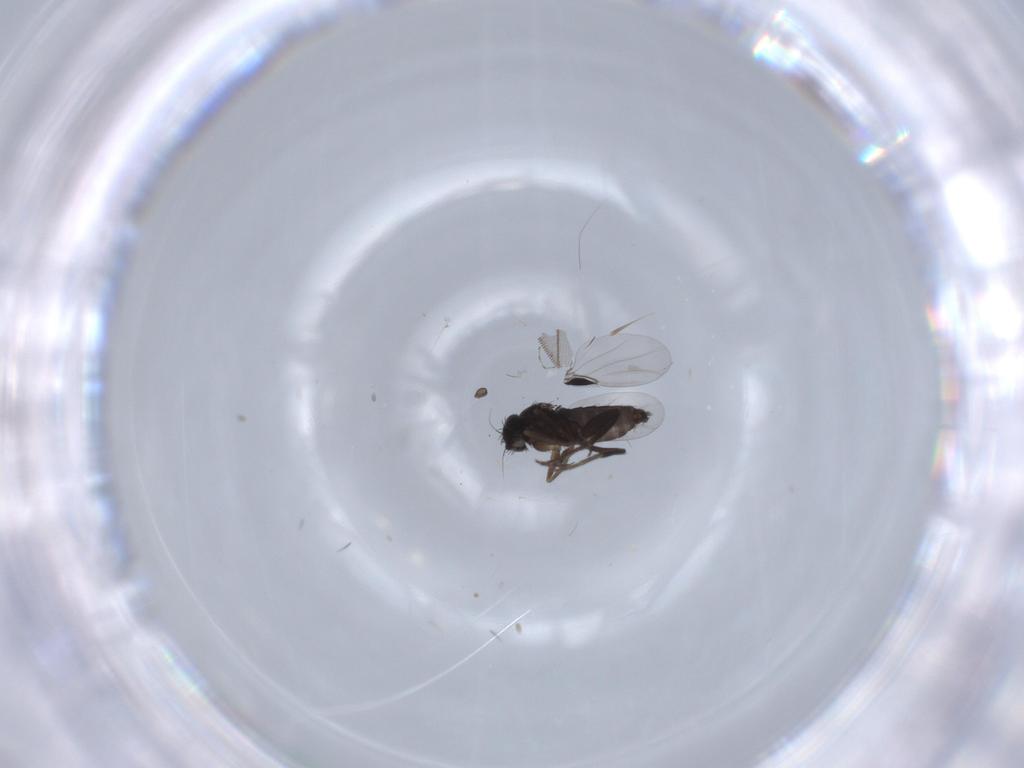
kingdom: Animalia
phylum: Arthropoda
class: Insecta
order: Diptera
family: Phoridae
